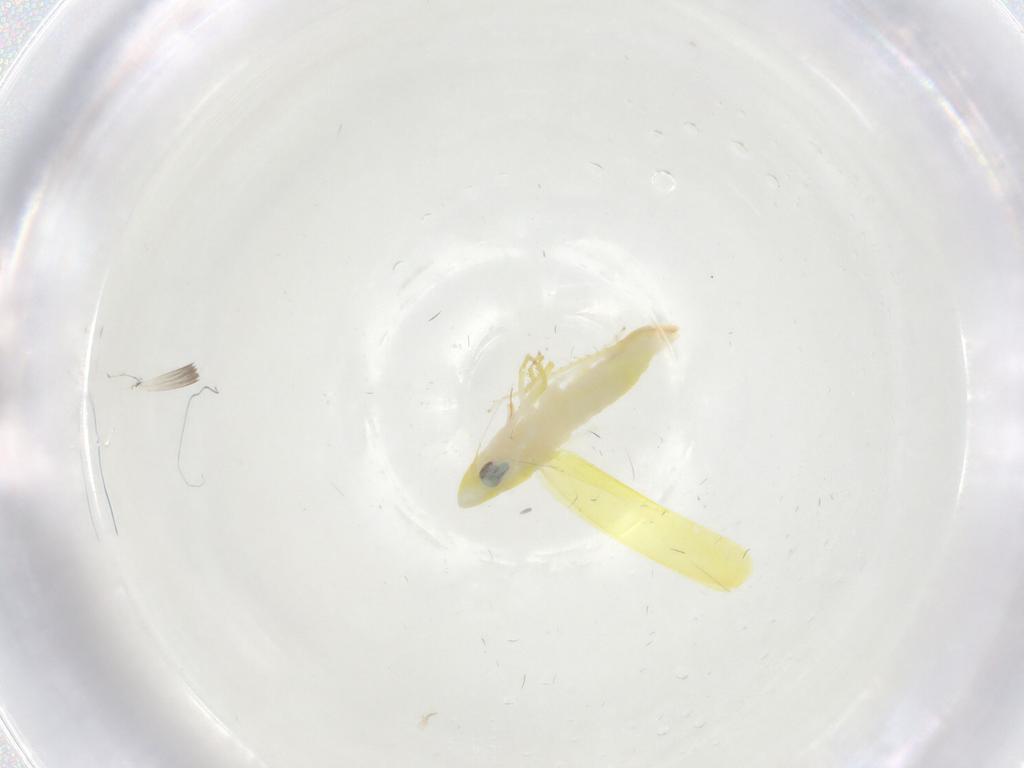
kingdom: Animalia
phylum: Arthropoda
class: Insecta
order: Hemiptera
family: Cicadellidae
